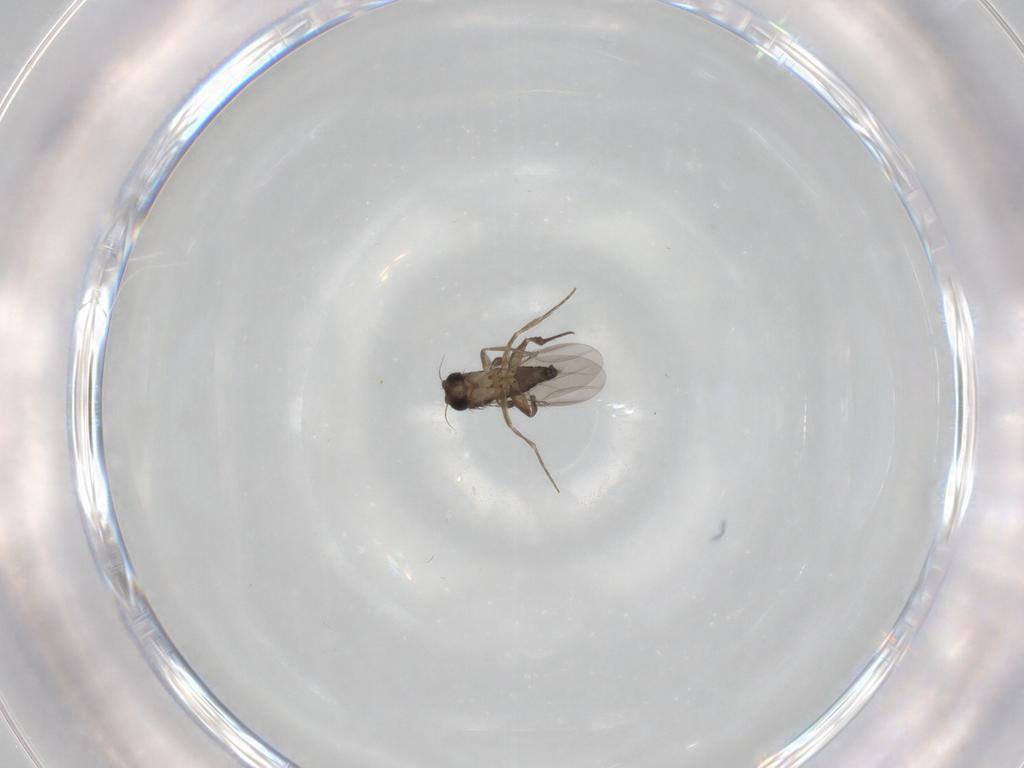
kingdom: Animalia
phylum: Arthropoda
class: Insecta
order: Diptera
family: Phoridae
